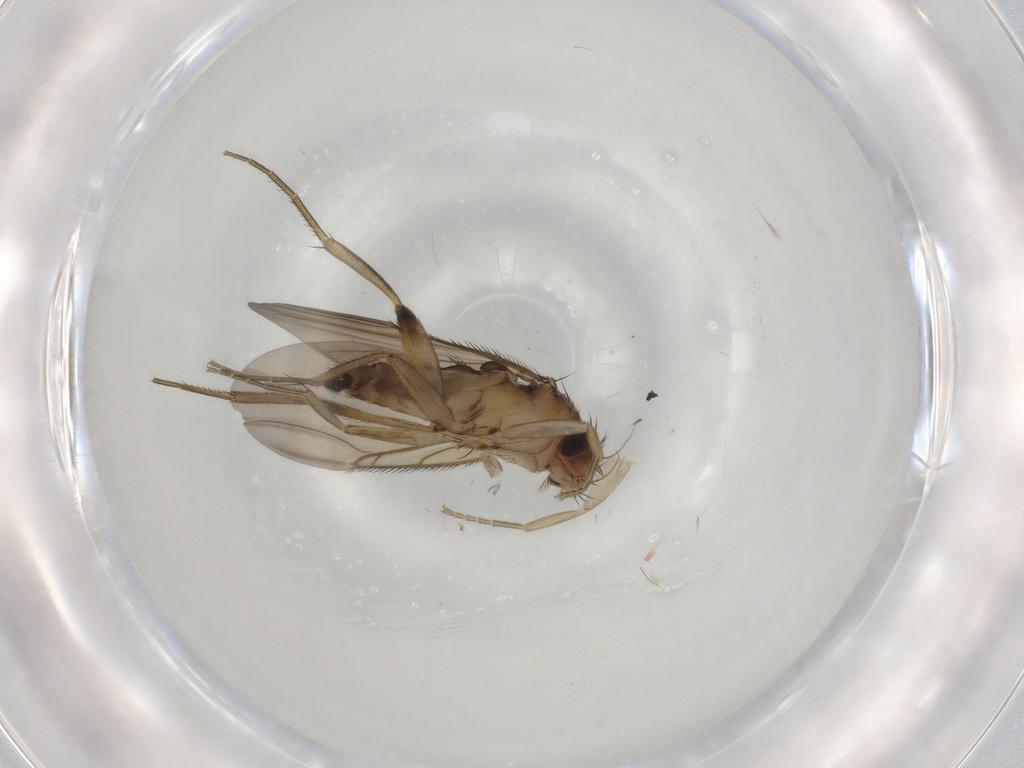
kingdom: Animalia
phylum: Arthropoda
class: Insecta
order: Diptera
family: Phoridae
